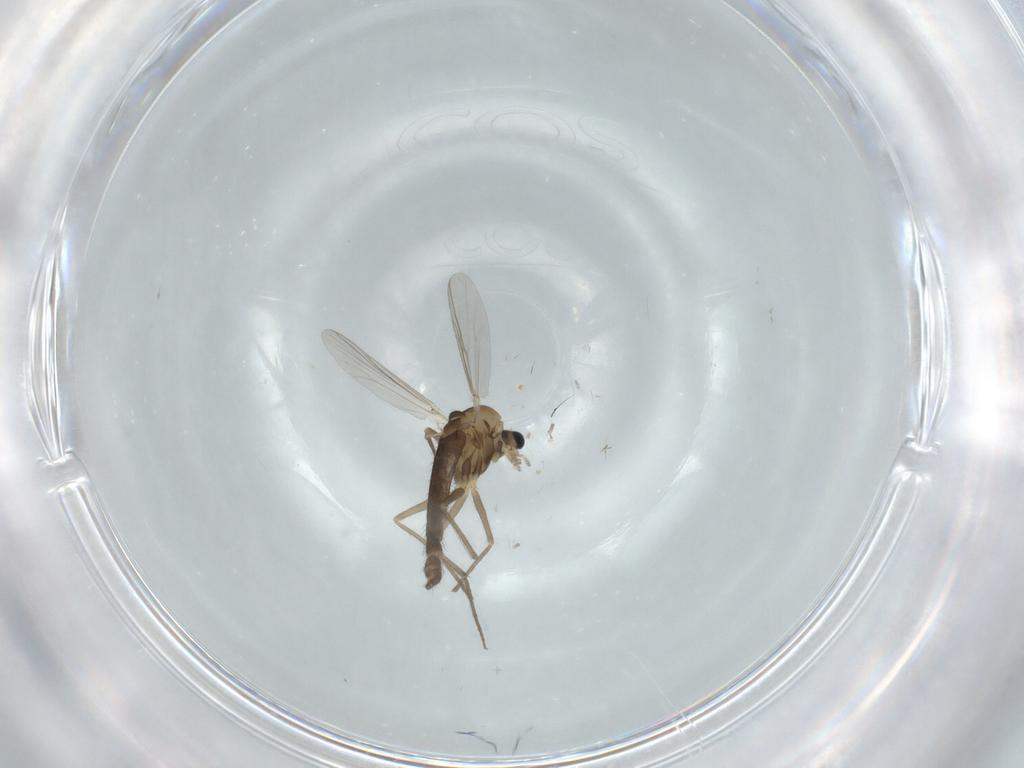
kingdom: Animalia
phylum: Arthropoda
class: Insecta
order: Diptera
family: Chironomidae
